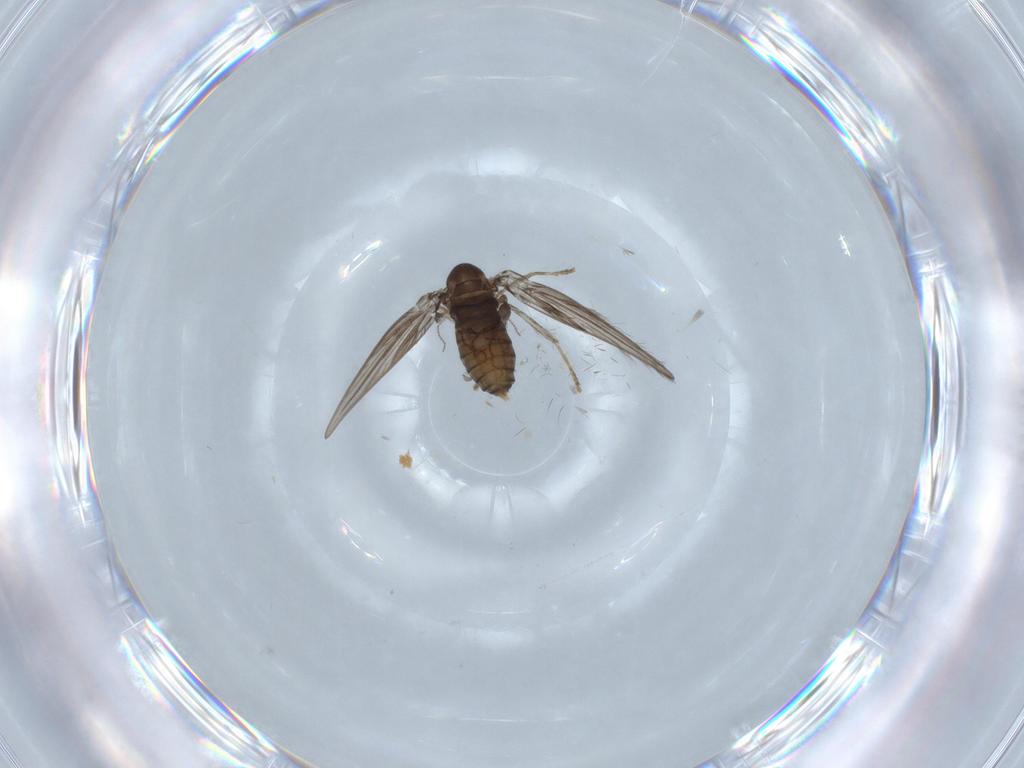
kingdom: Animalia
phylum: Arthropoda
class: Insecta
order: Diptera
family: Psychodidae
